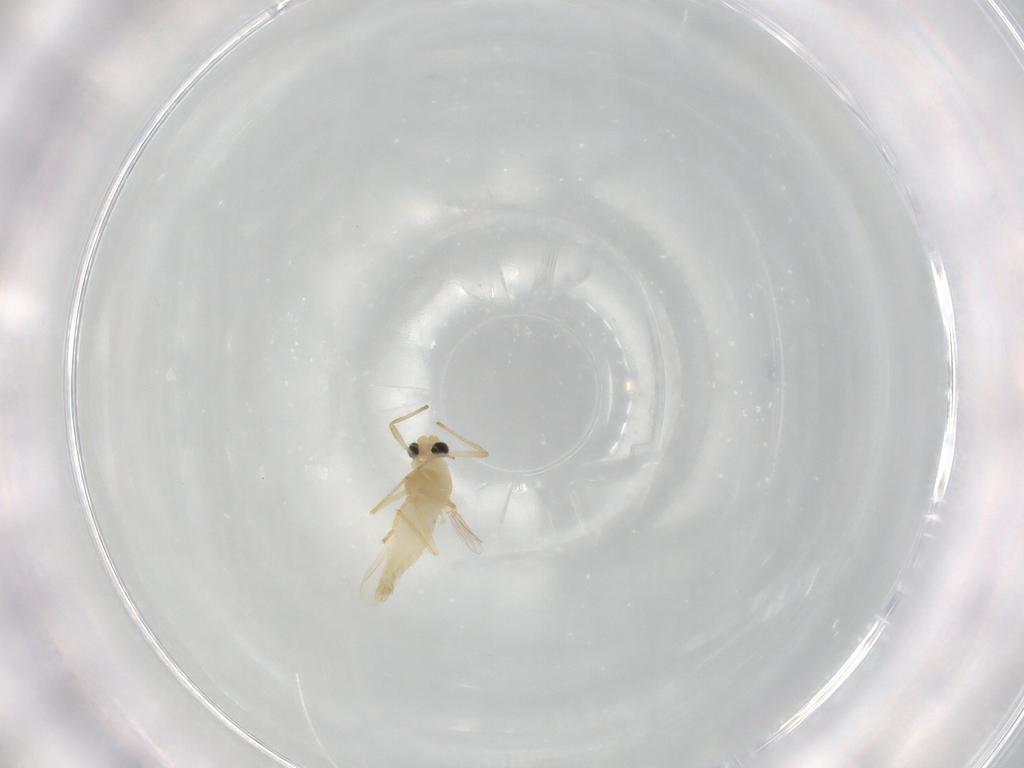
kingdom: Animalia
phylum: Arthropoda
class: Insecta
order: Diptera
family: Chironomidae
